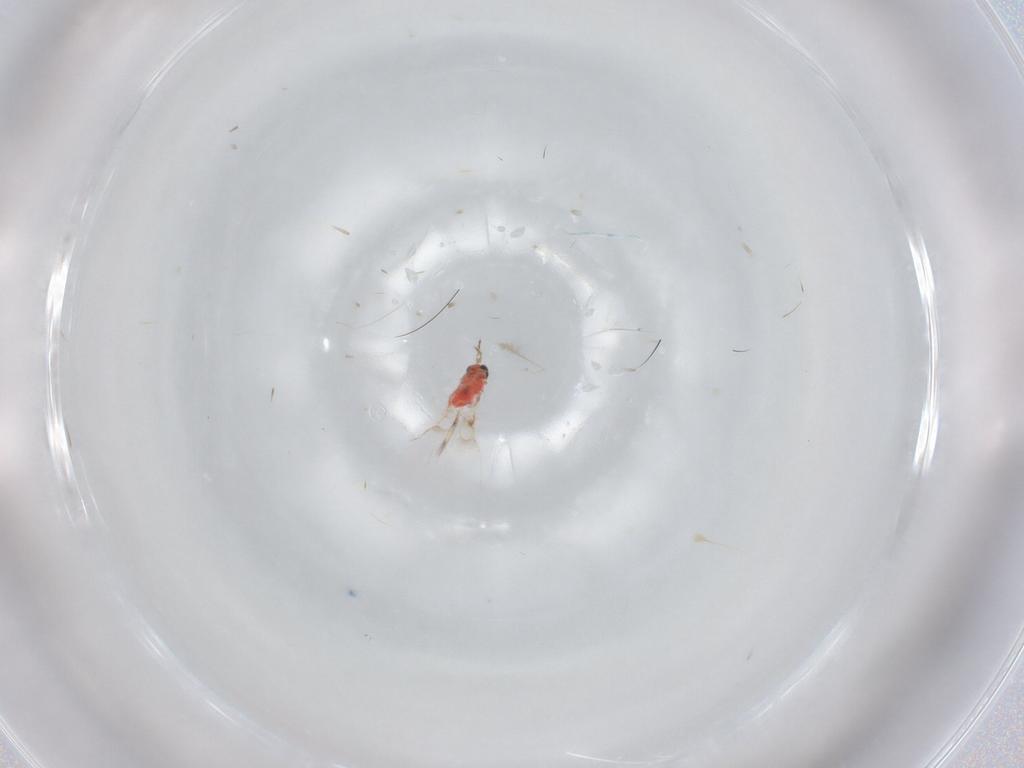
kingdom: Animalia
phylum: Arthropoda
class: Insecta
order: Hymenoptera
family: Trichogrammatidae
